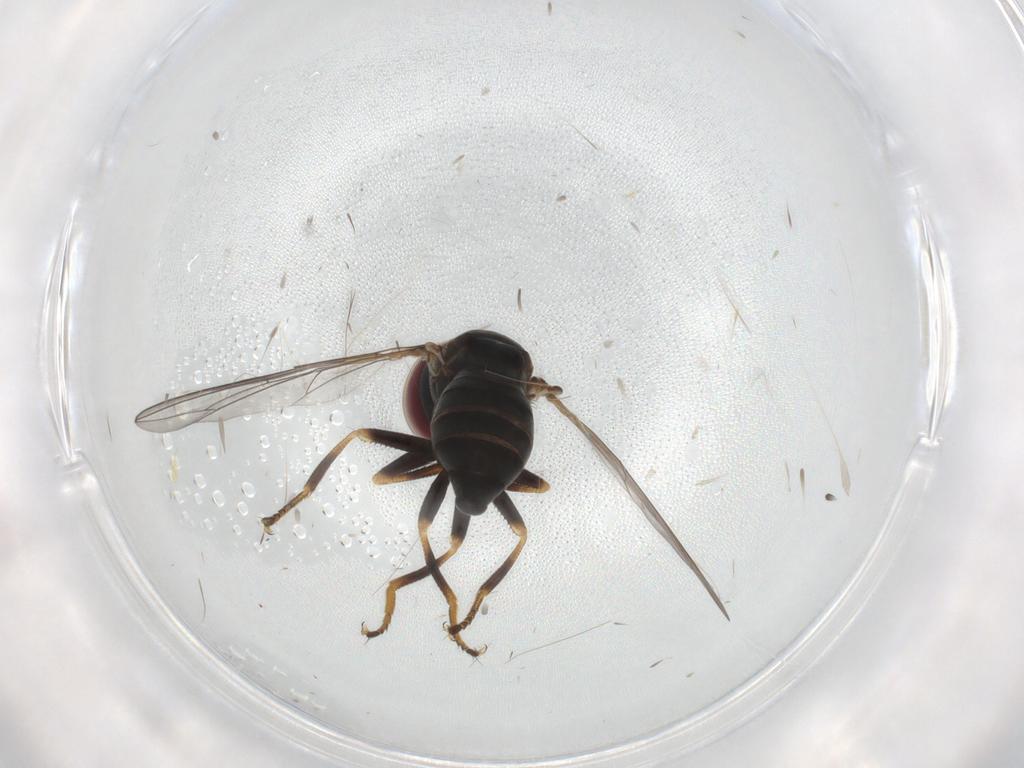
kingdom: Animalia
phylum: Arthropoda
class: Insecta
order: Diptera
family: Pipunculidae
